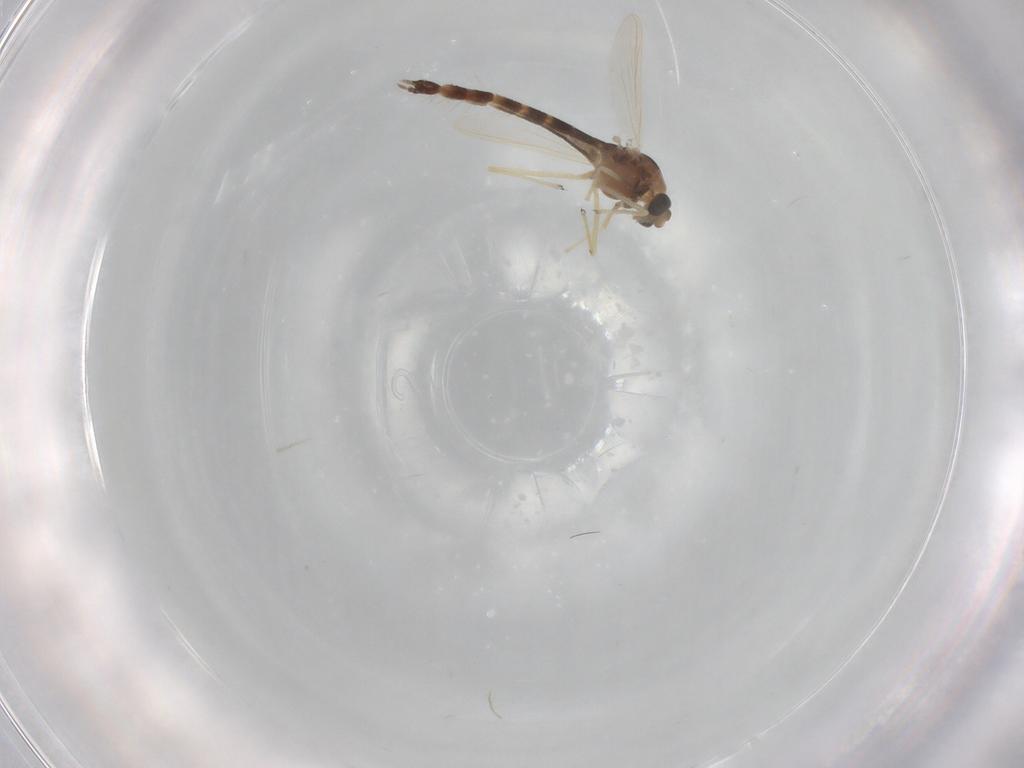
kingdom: Animalia
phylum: Arthropoda
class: Insecta
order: Diptera
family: Chironomidae
